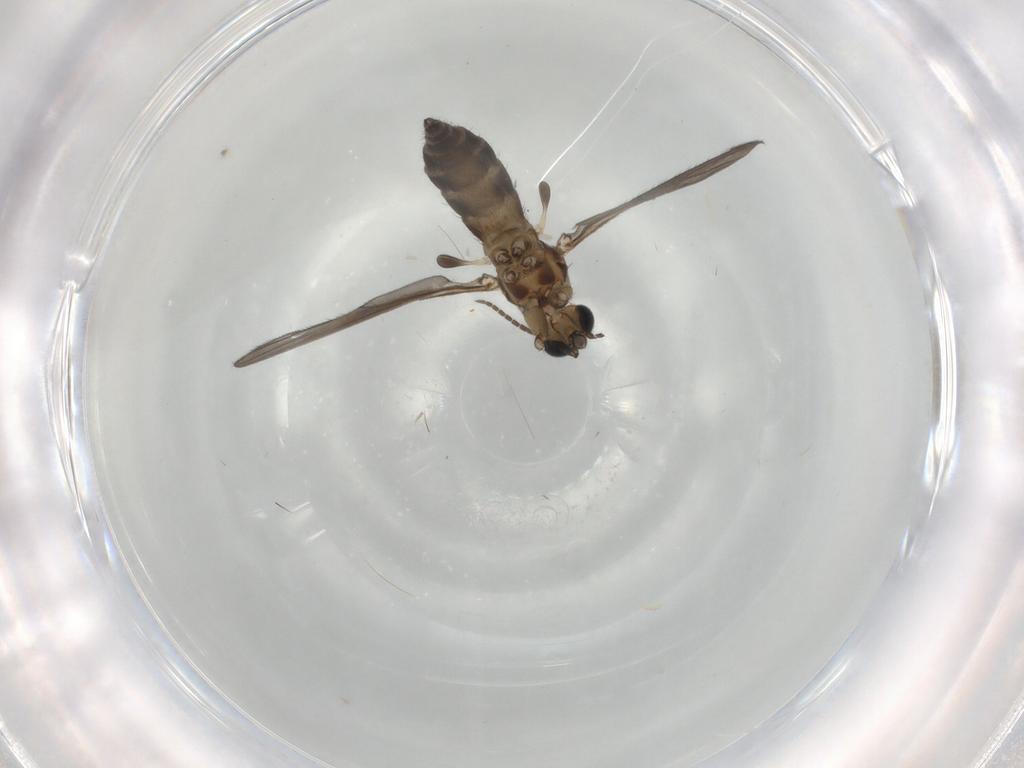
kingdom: Animalia
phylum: Arthropoda
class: Insecta
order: Diptera
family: Sciaridae
